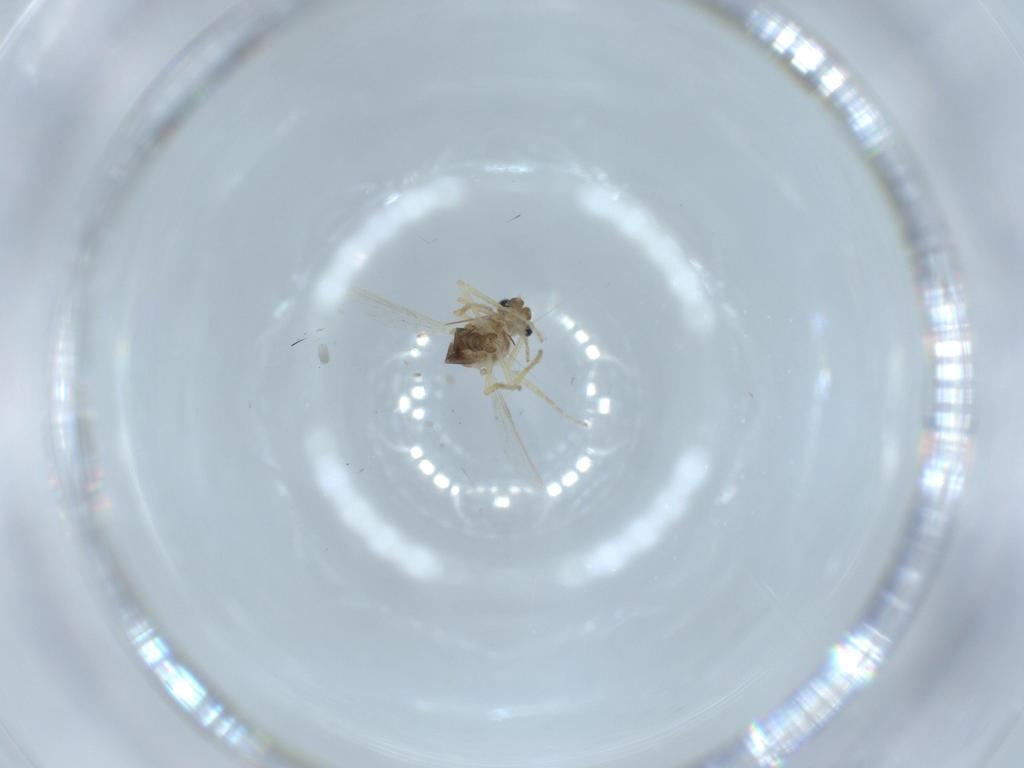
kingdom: Animalia
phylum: Arthropoda
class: Insecta
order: Diptera
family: Ceratopogonidae
